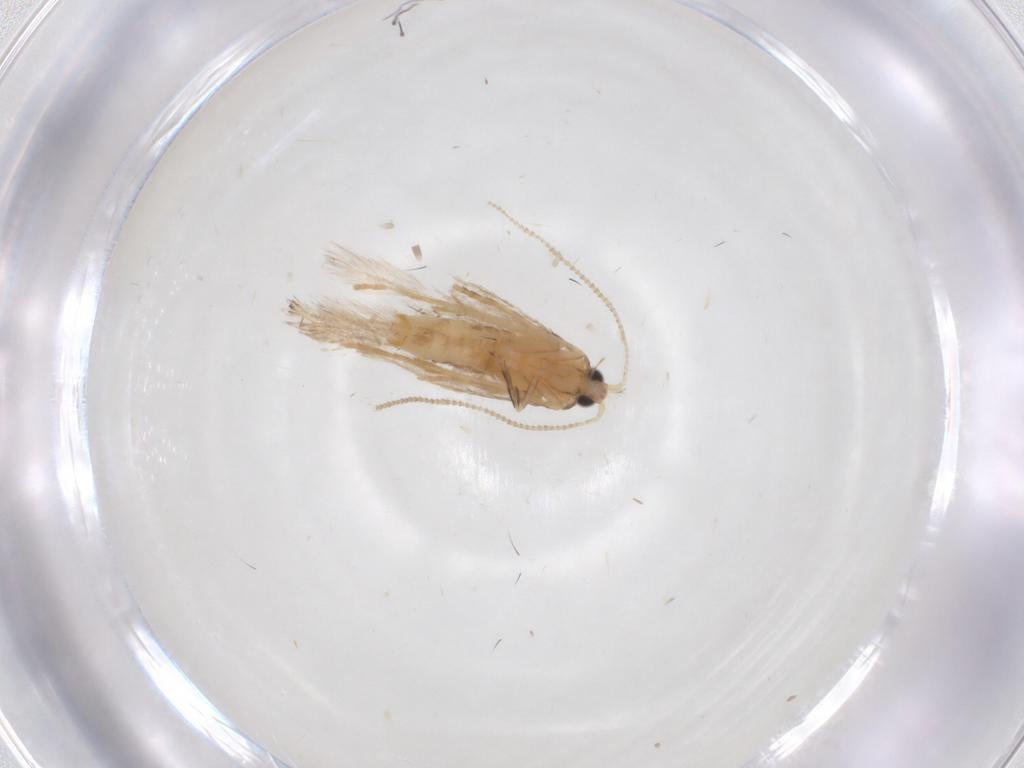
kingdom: Animalia
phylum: Arthropoda
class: Insecta
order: Lepidoptera
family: Tineidae
